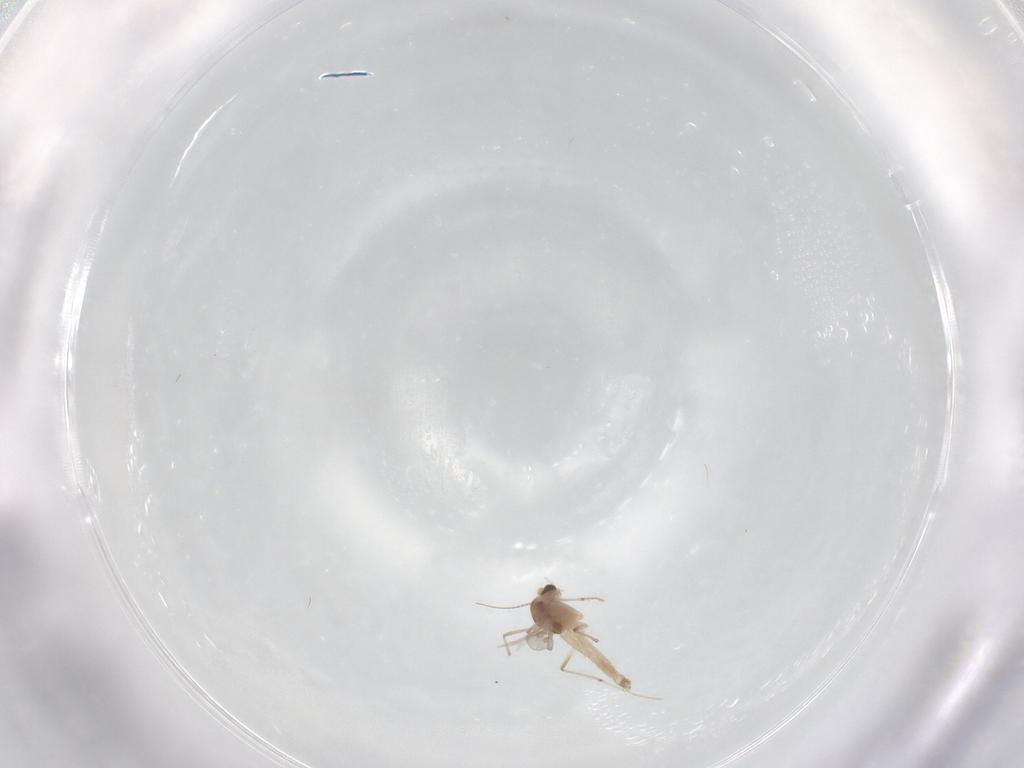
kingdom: Animalia
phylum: Arthropoda
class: Insecta
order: Diptera
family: Chironomidae
